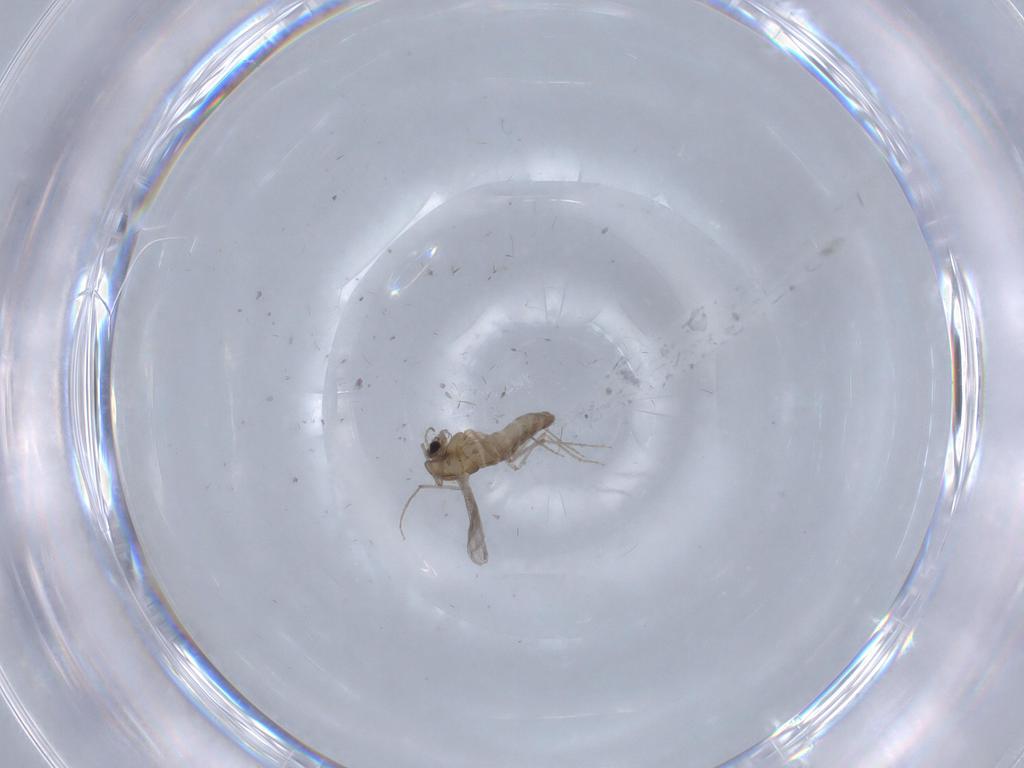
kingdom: Animalia
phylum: Arthropoda
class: Insecta
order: Diptera
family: Chironomidae
